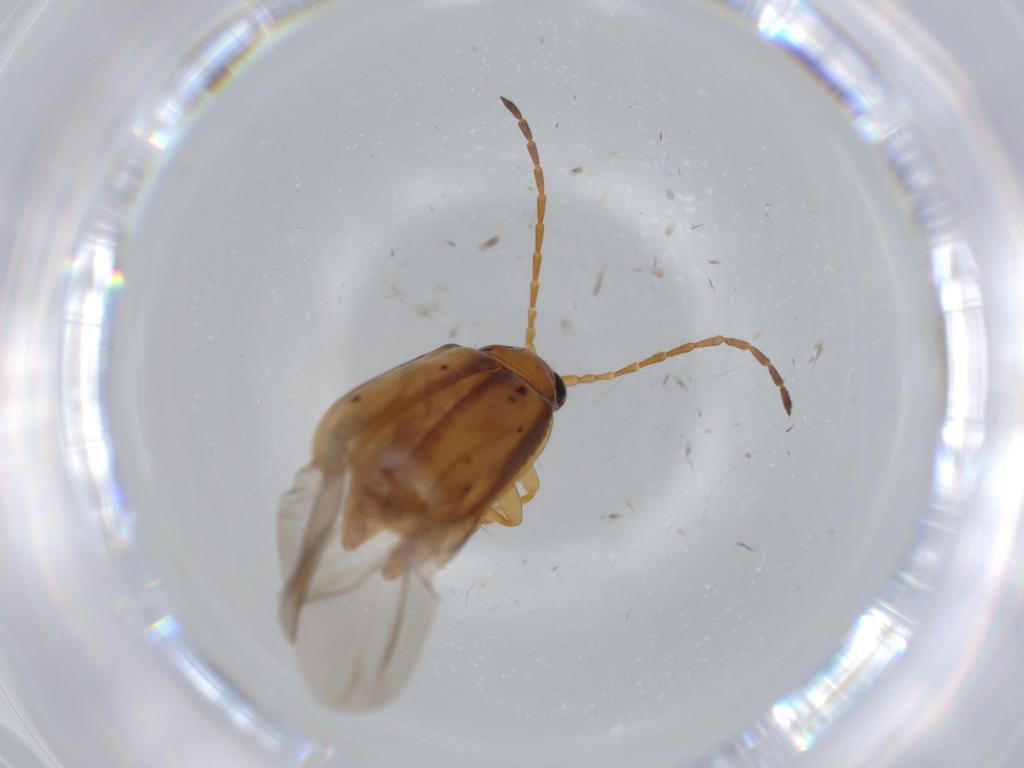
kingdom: Animalia
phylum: Arthropoda
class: Insecta
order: Coleoptera
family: Chrysomelidae
